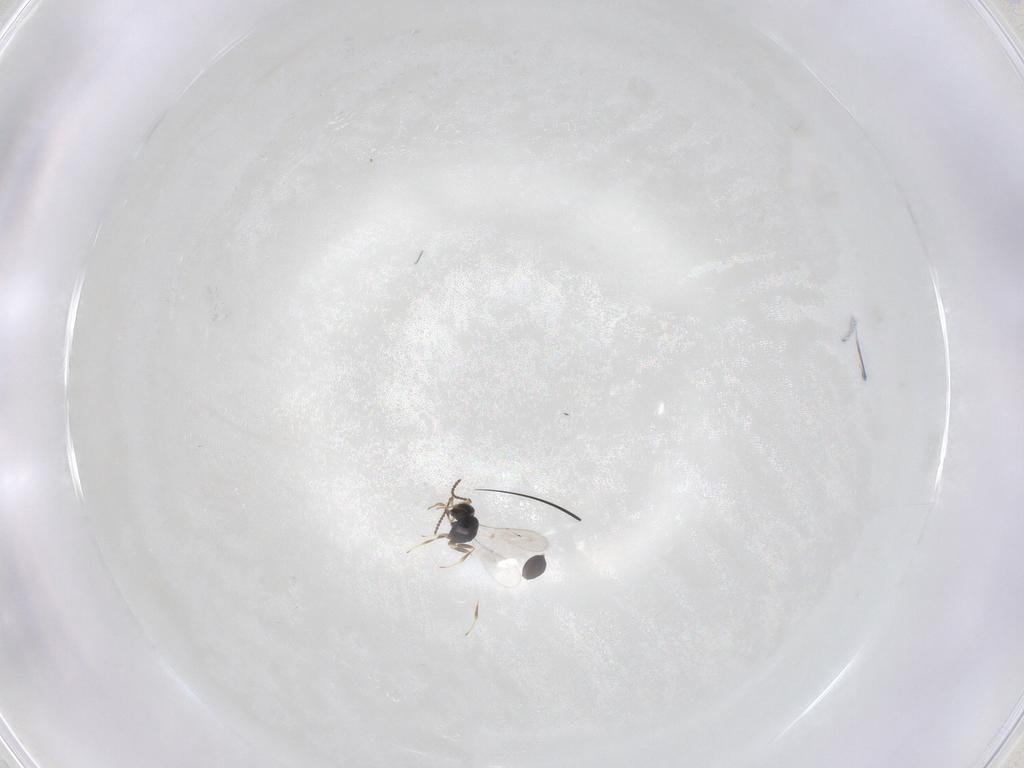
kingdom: Animalia
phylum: Arthropoda
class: Insecta
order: Hymenoptera
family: Scelionidae
